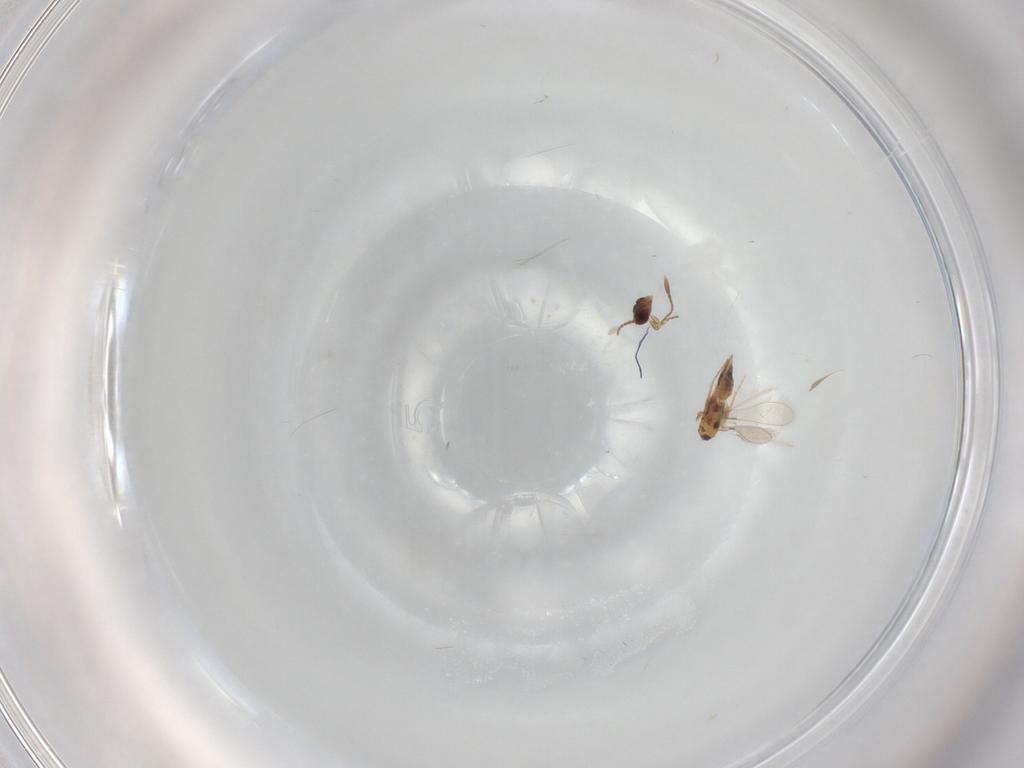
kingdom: Animalia
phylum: Arthropoda
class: Insecta
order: Hymenoptera
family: Mymaridae
